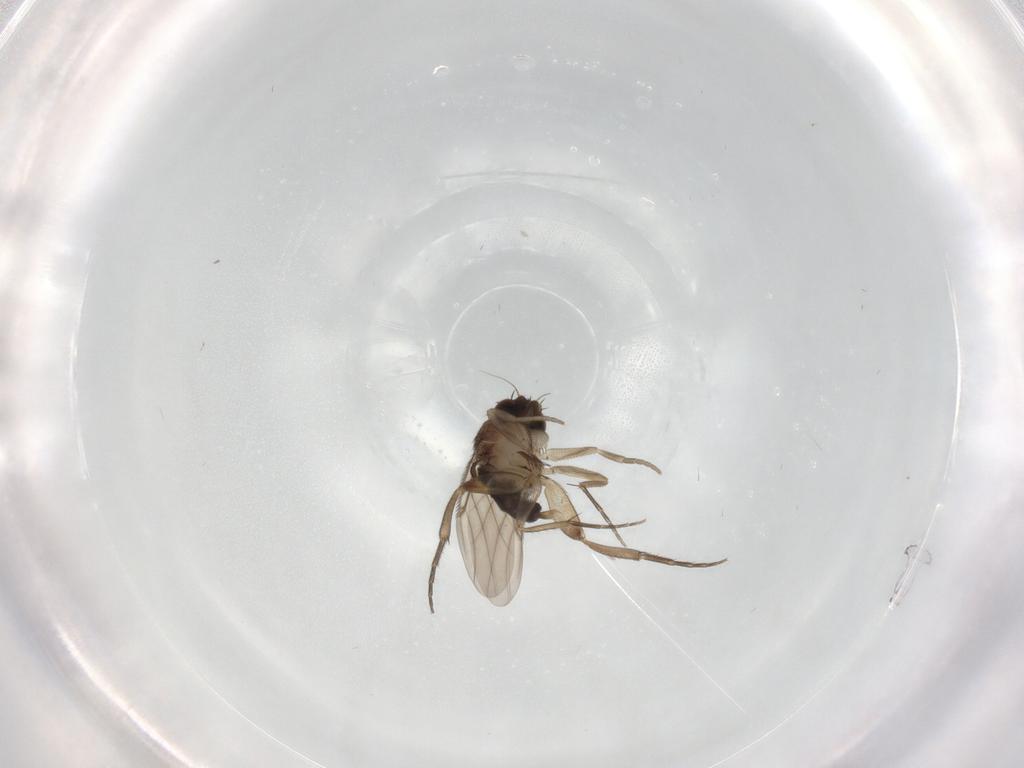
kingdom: Animalia
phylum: Arthropoda
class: Insecta
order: Diptera
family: Phoridae
